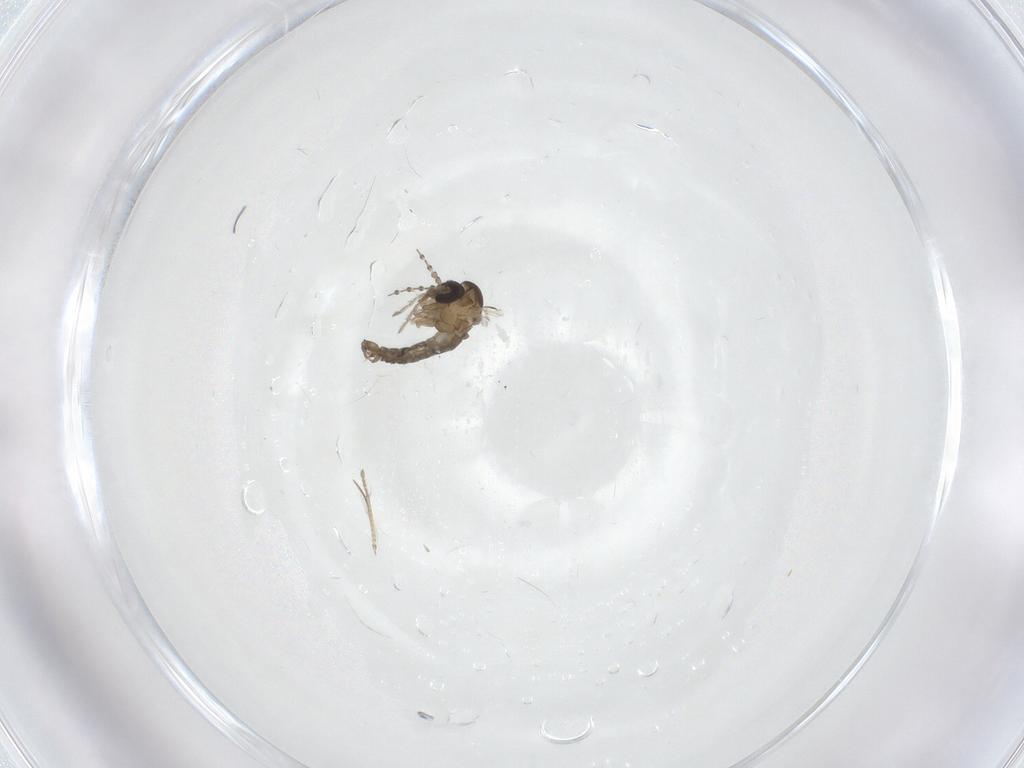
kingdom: Animalia
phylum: Arthropoda
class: Insecta
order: Diptera
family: Psychodidae
